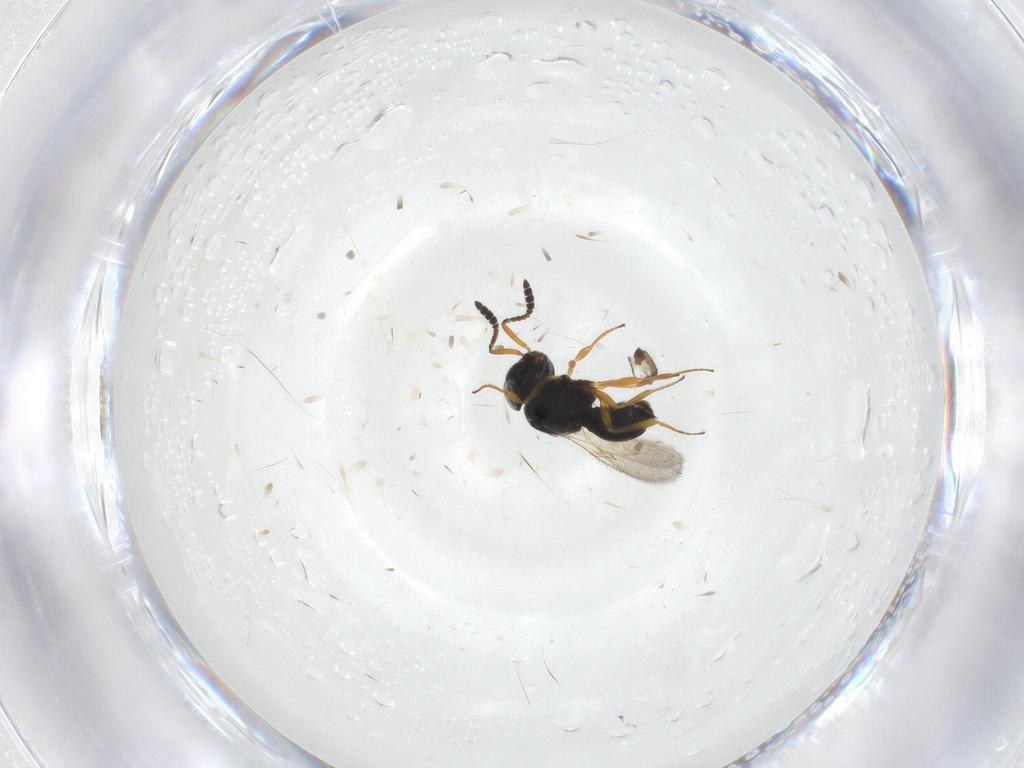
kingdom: Animalia
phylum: Arthropoda
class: Insecta
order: Hymenoptera
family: Scelionidae
